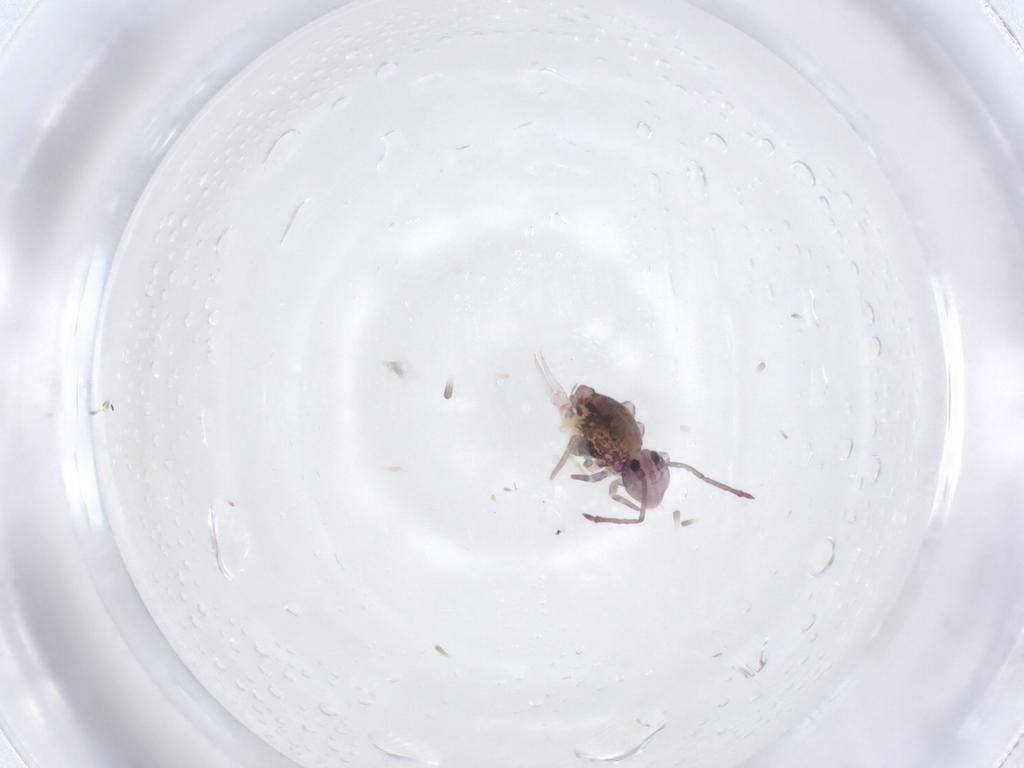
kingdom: Animalia
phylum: Arthropoda
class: Collembola
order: Symphypleona
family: Dicyrtomidae
